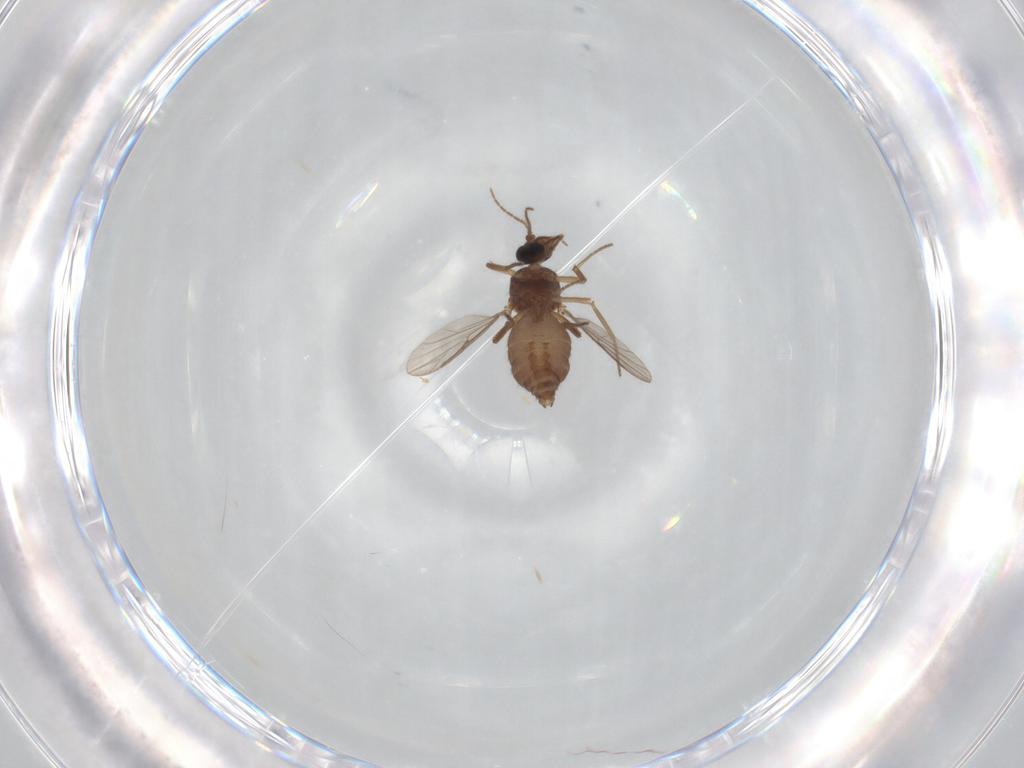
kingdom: Animalia
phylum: Arthropoda
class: Insecta
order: Diptera
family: Ceratopogonidae
